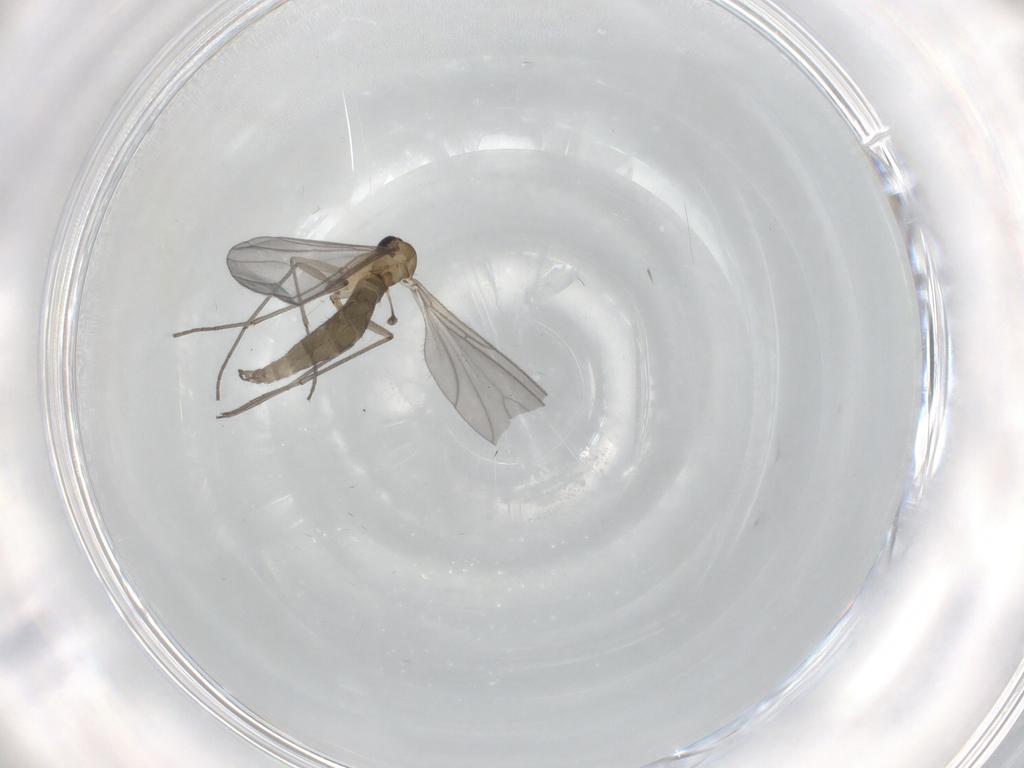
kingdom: Animalia
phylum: Arthropoda
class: Insecta
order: Diptera
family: Sciaridae
